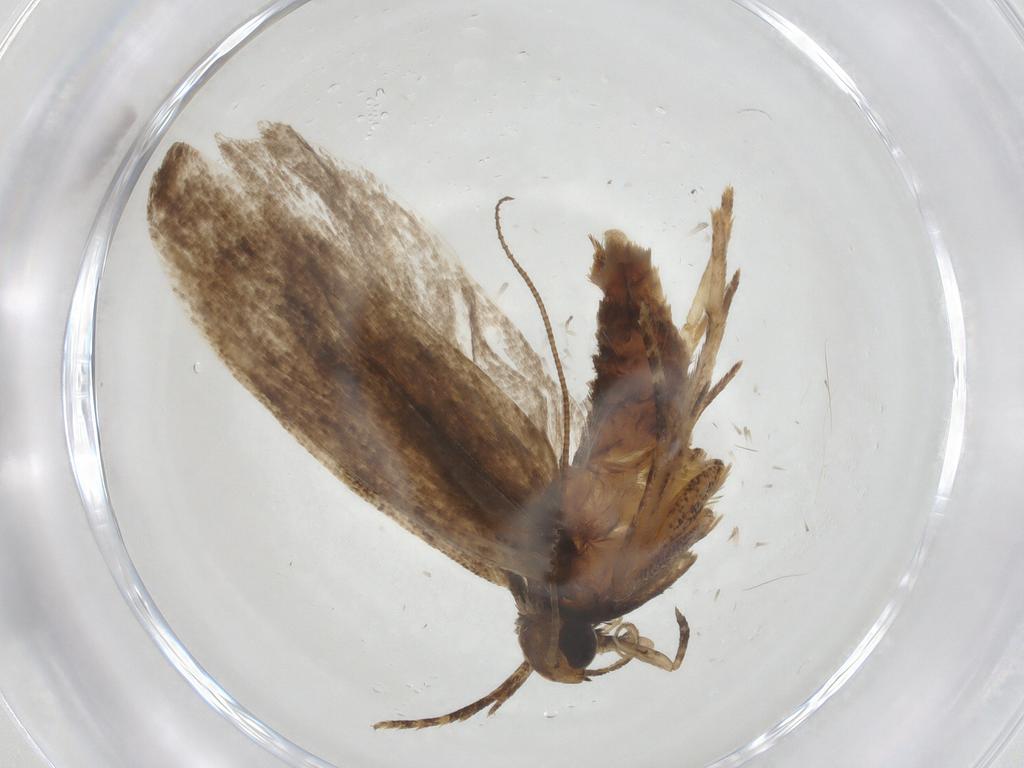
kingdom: Animalia
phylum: Arthropoda
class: Insecta
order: Lepidoptera
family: Gelechiidae
